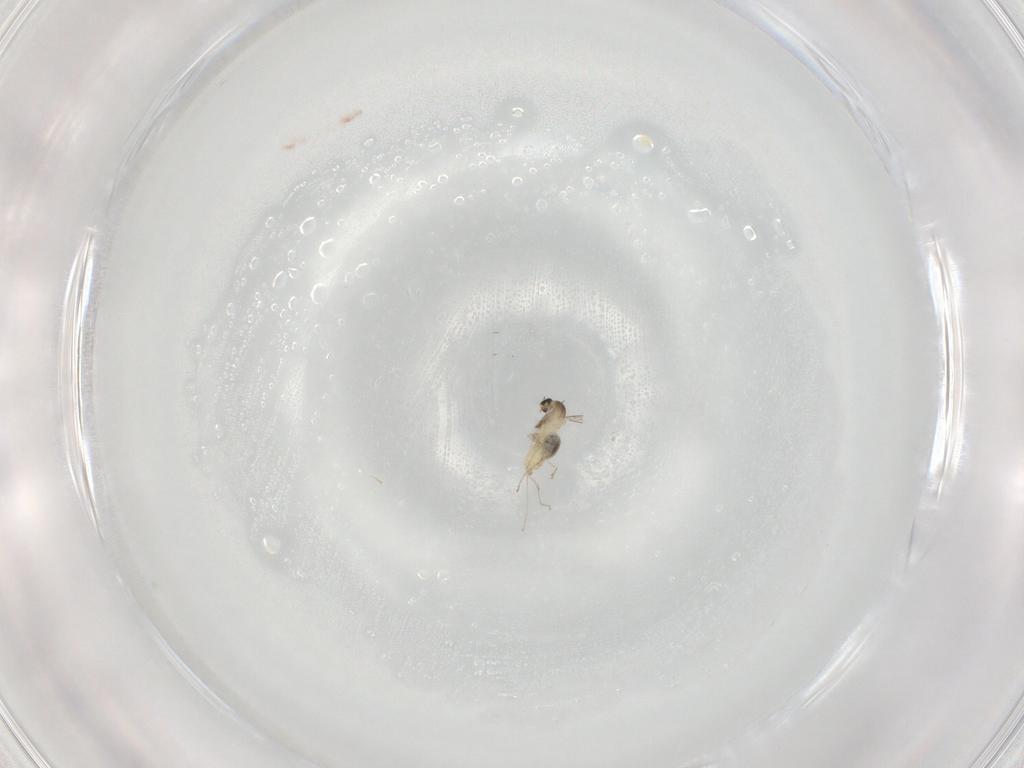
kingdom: Animalia
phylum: Arthropoda
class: Insecta
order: Diptera
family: Cecidomyiidae
